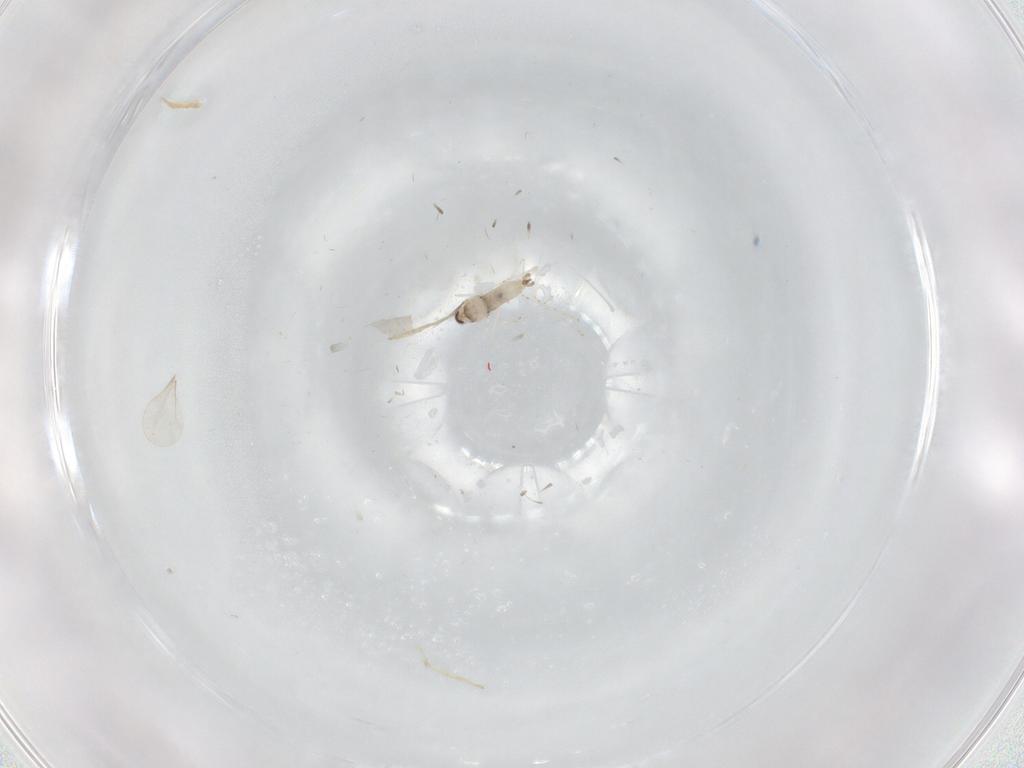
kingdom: Animalia
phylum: Arthropoda
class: Insecta
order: Diptera
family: Cecidomyiidae
